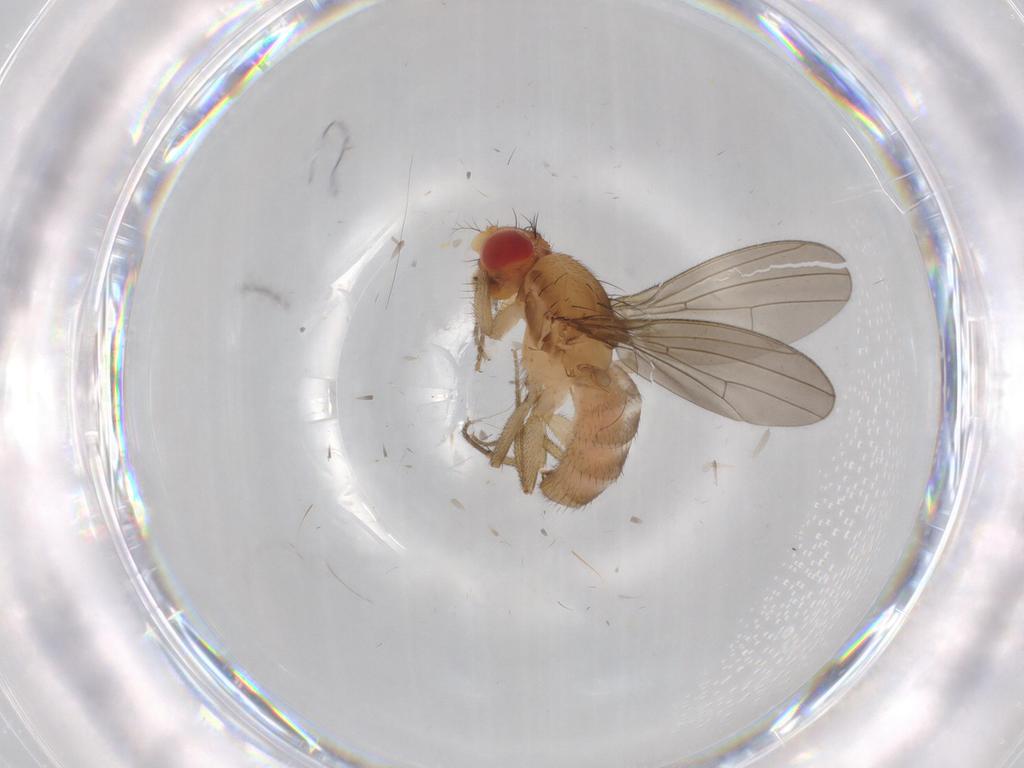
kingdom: Animalia
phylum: Arthropoda
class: Insecta
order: Diptera
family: Drosophilidae
